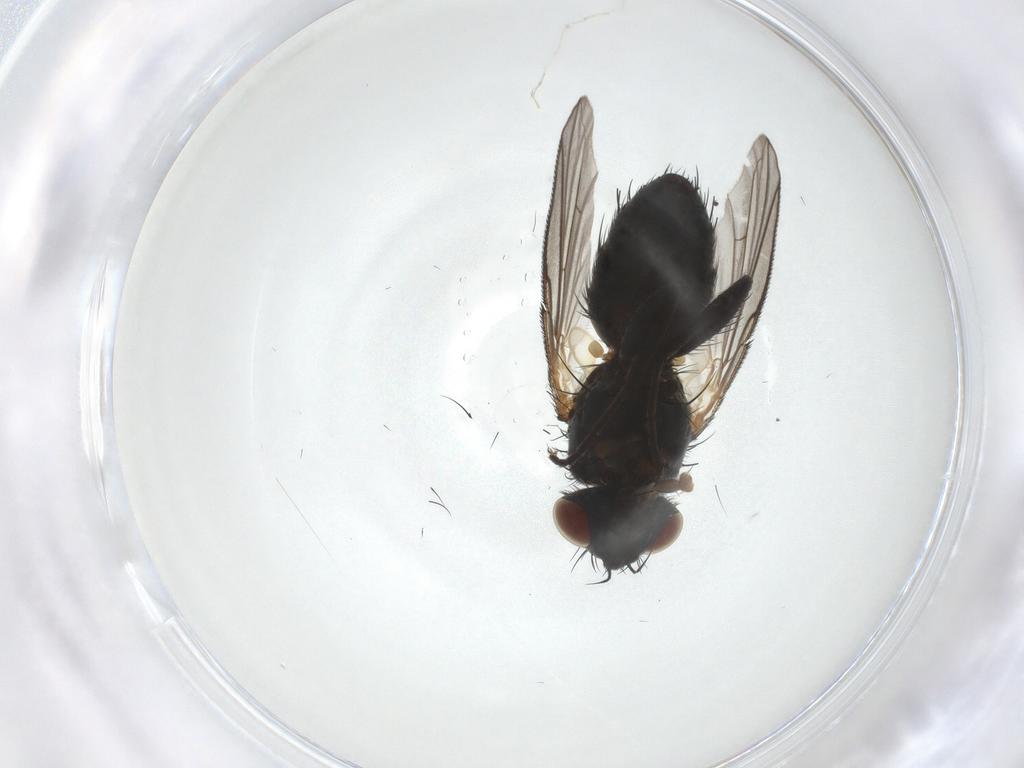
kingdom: Animalia
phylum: Arthropoda
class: Insecta
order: Diptera
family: Tachinidae
